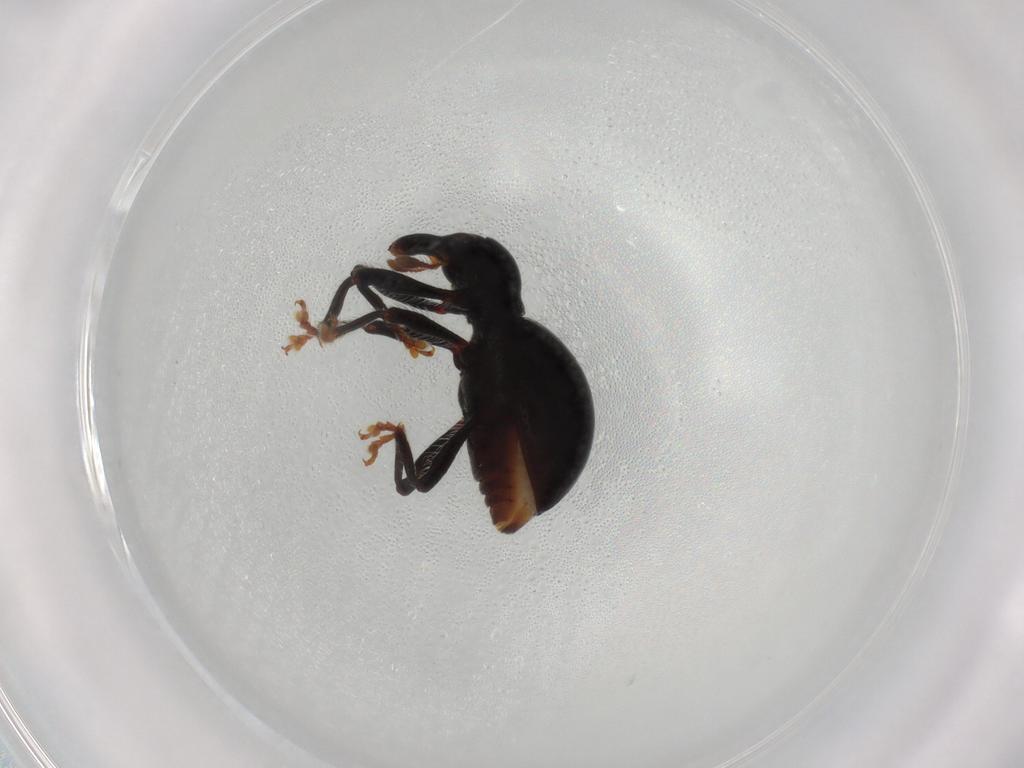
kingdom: Animalia
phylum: Arthropoda
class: Insecta
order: Coleoptera
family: Curculionidae
